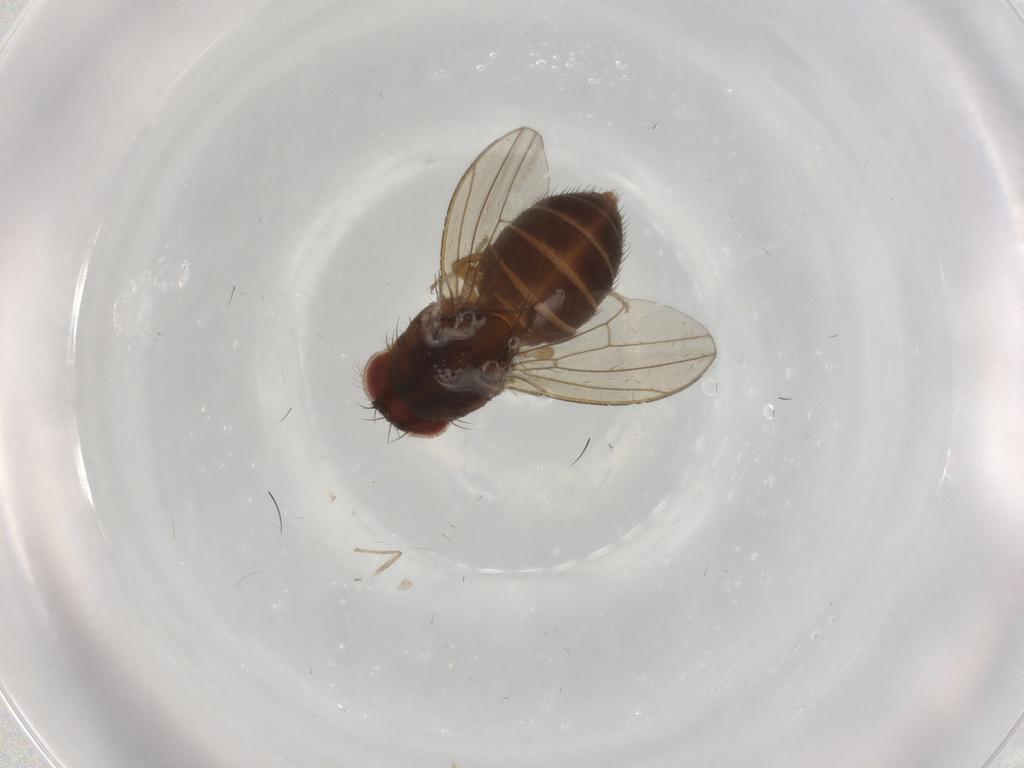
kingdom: Animalia
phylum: Arthropoda
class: Insecta
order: Diptera
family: Drosophilidae
